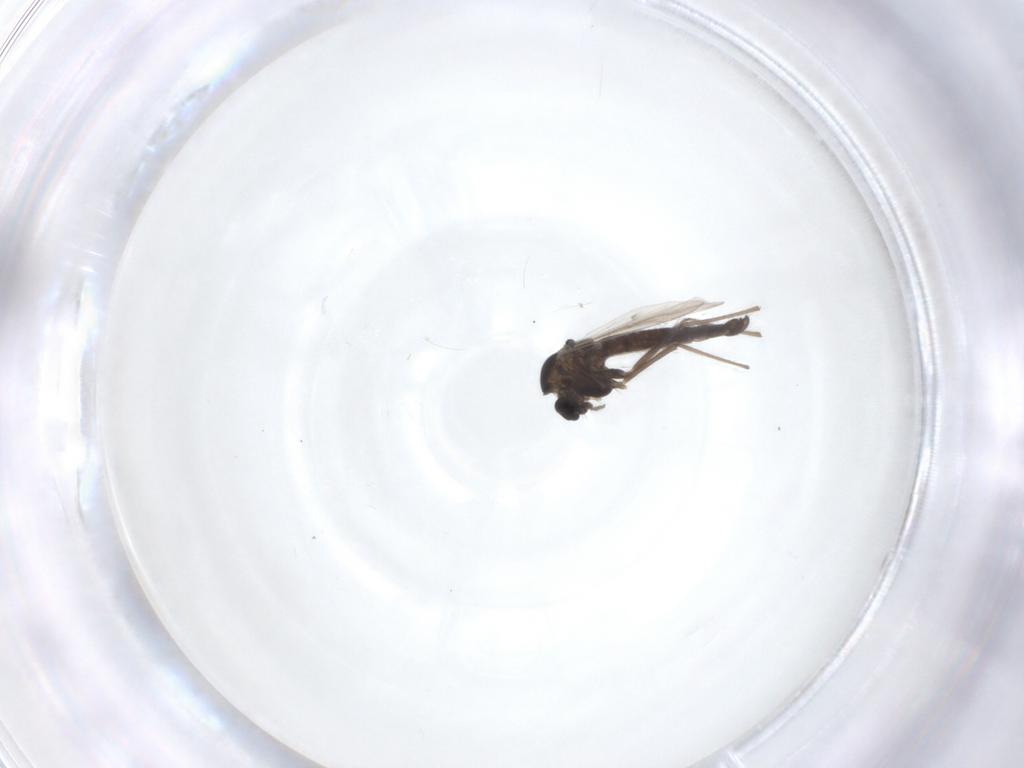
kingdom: Animalia
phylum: Arthropoda
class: Insecta
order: Diptera
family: Chironomidae
